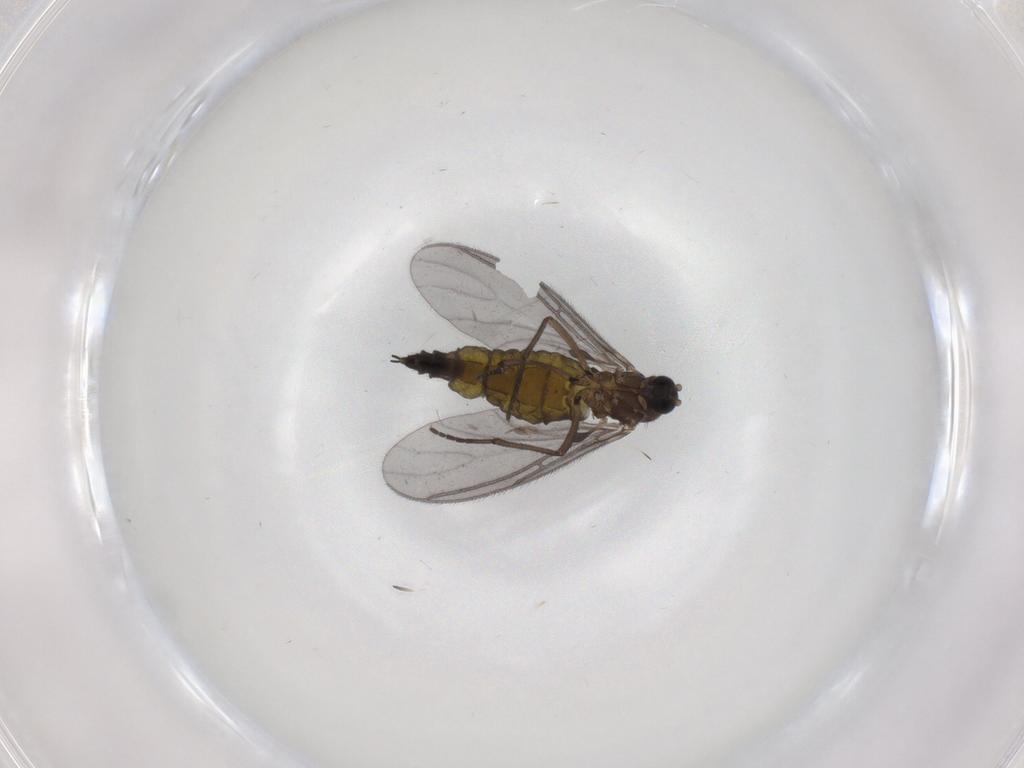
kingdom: Animalia
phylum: Arthropoda
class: Insecta
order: Diptera
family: Sciaridae
